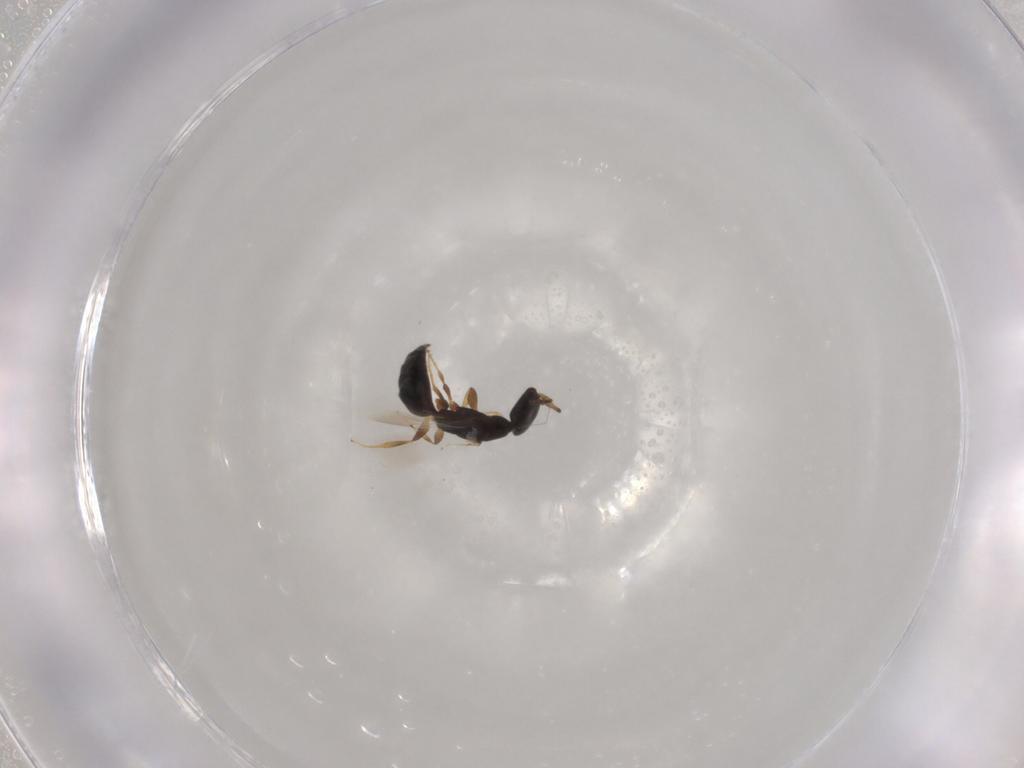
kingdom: Animalia
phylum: Arthropoda
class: Insecta
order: Hymenoptera
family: Bethylidae
